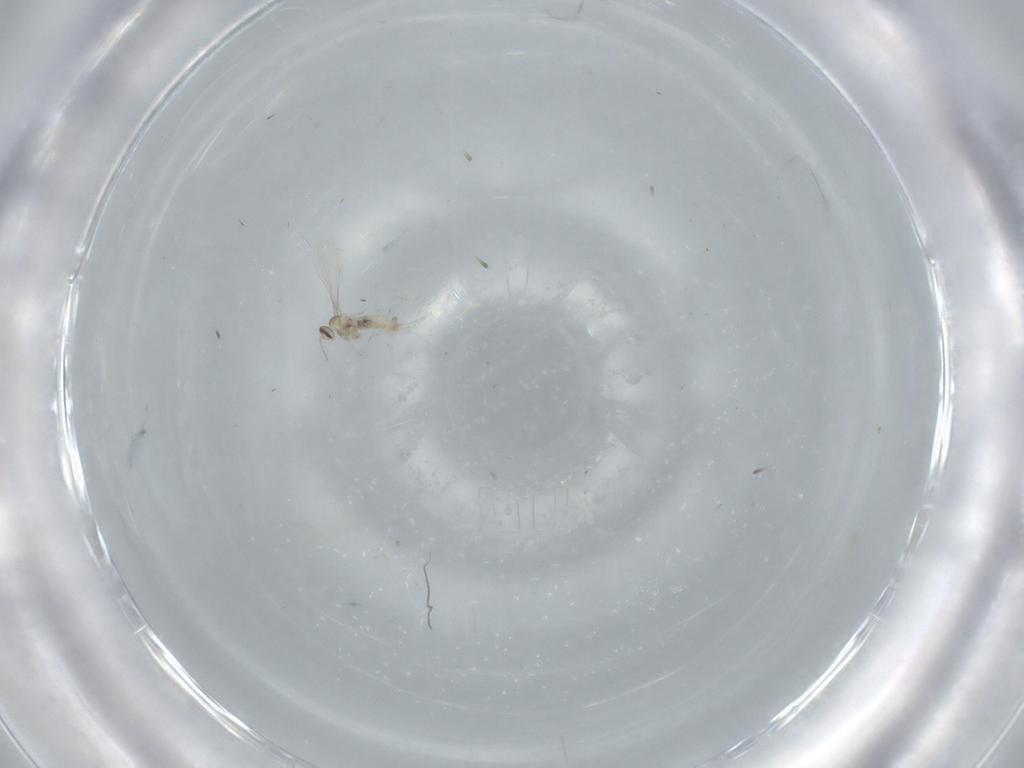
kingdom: Animalia
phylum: Arthropoda
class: Insecta
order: Diptera
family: Cecidomyiidae
